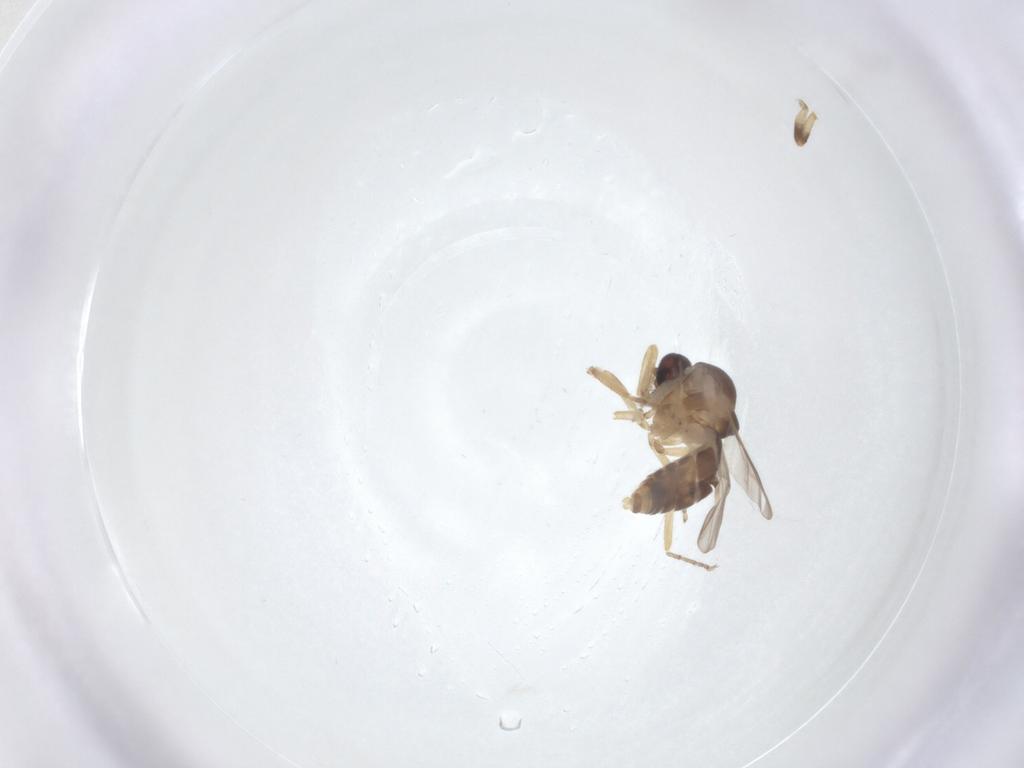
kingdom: Animalia
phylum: Arthropoda
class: Insecta
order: Diptera
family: Ceratopogonidae
